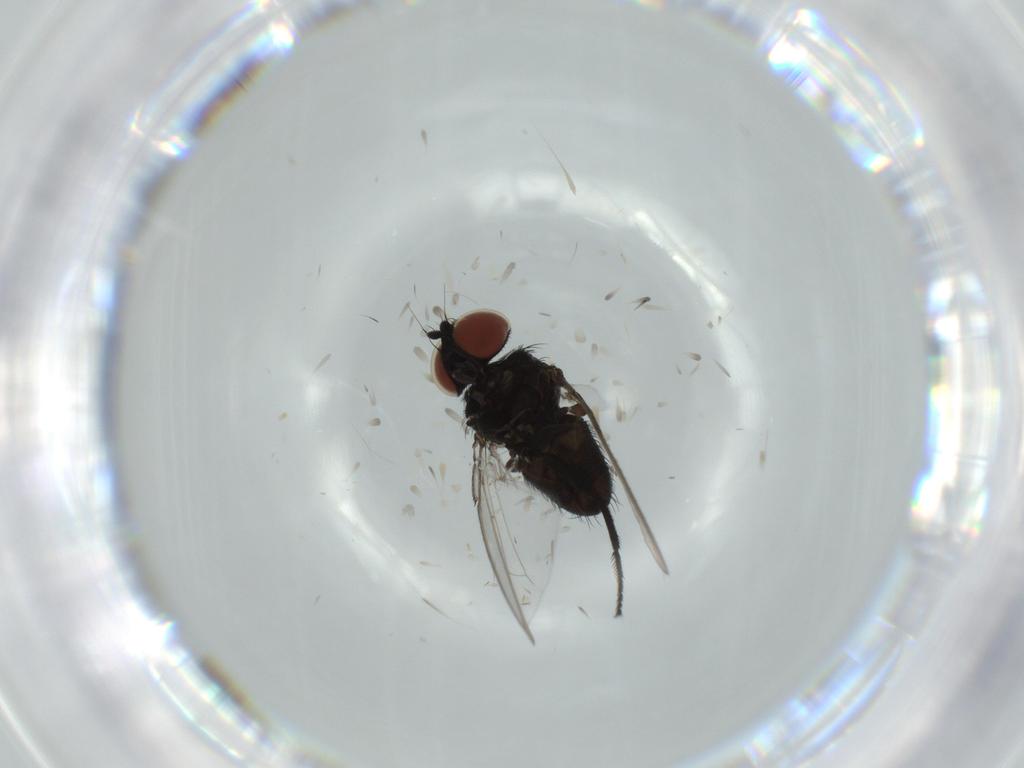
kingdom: Animalia
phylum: Arthropoda
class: Insecta
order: Diptera
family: Milichiidae
